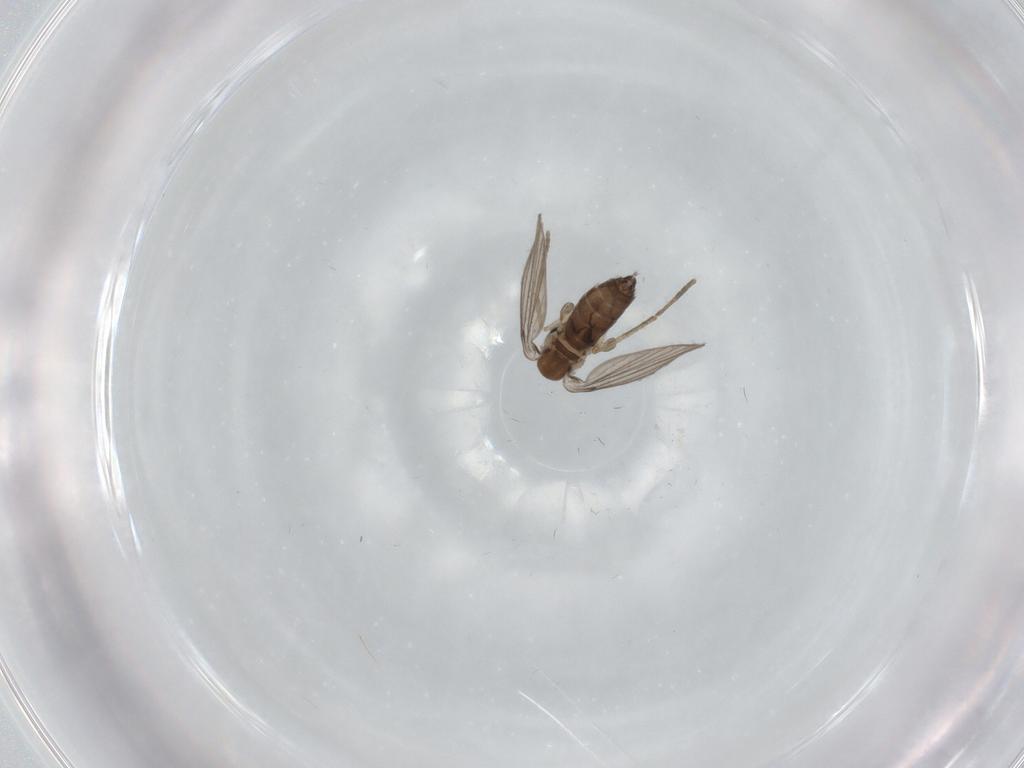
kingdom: Animalia
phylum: Arthropoda
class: Insecta
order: Diptera
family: Psychodidae
